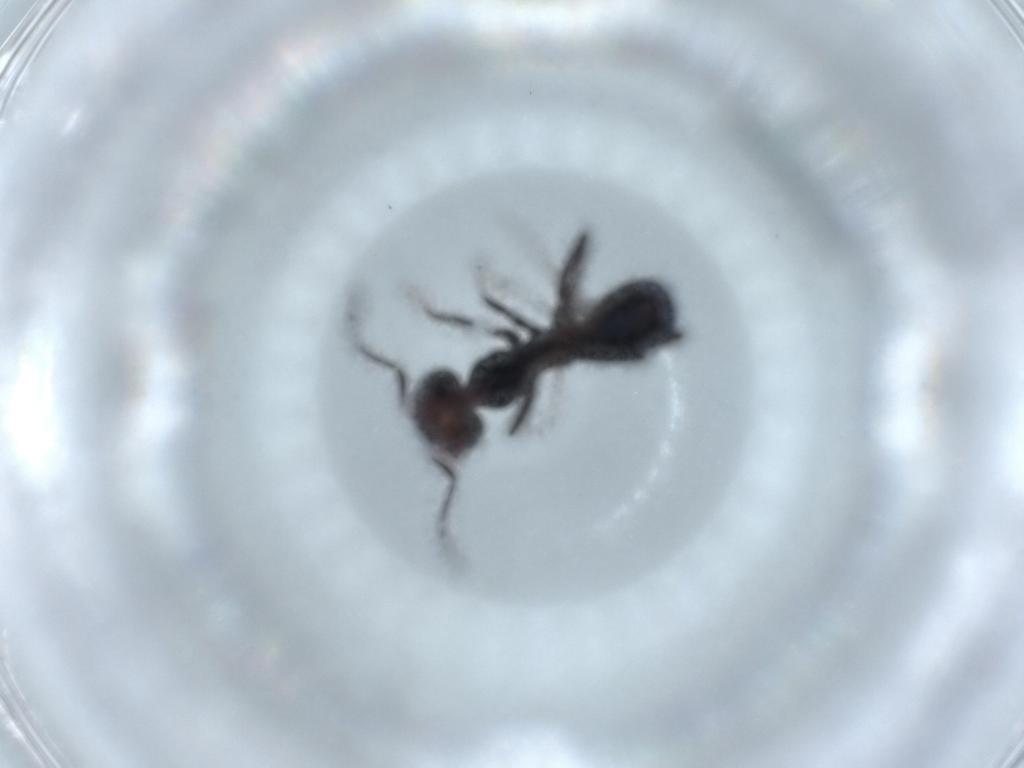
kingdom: Animalia
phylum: Arthropoda
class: Insecta
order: Hymenoptera
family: Formicidae
